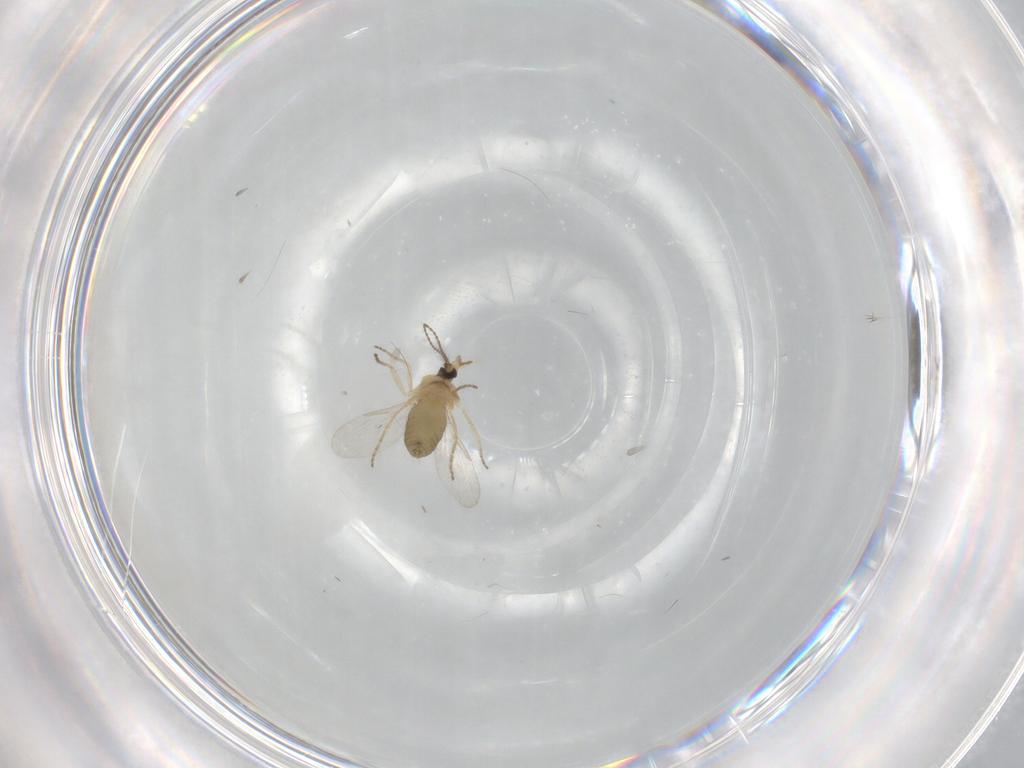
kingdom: Animalia
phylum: Arthropoda
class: Insecta
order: Diptera
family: Ceratopogonidae
